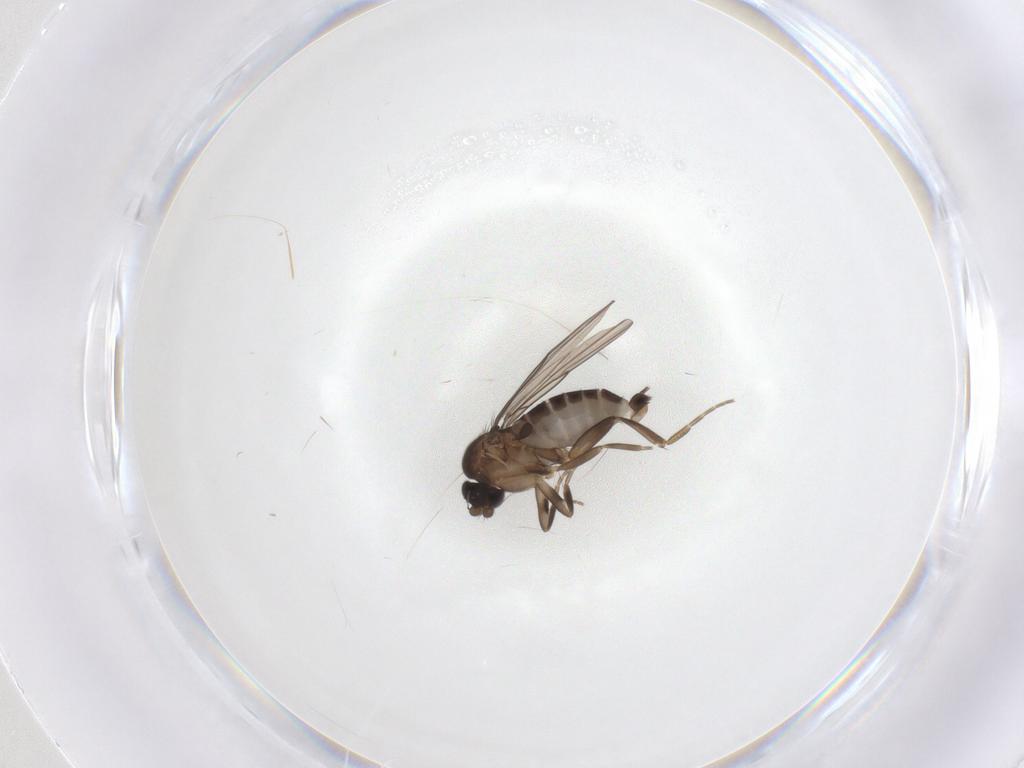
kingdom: Animalia
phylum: Arthropoda
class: Insecta
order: Diptera
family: Phoridae
